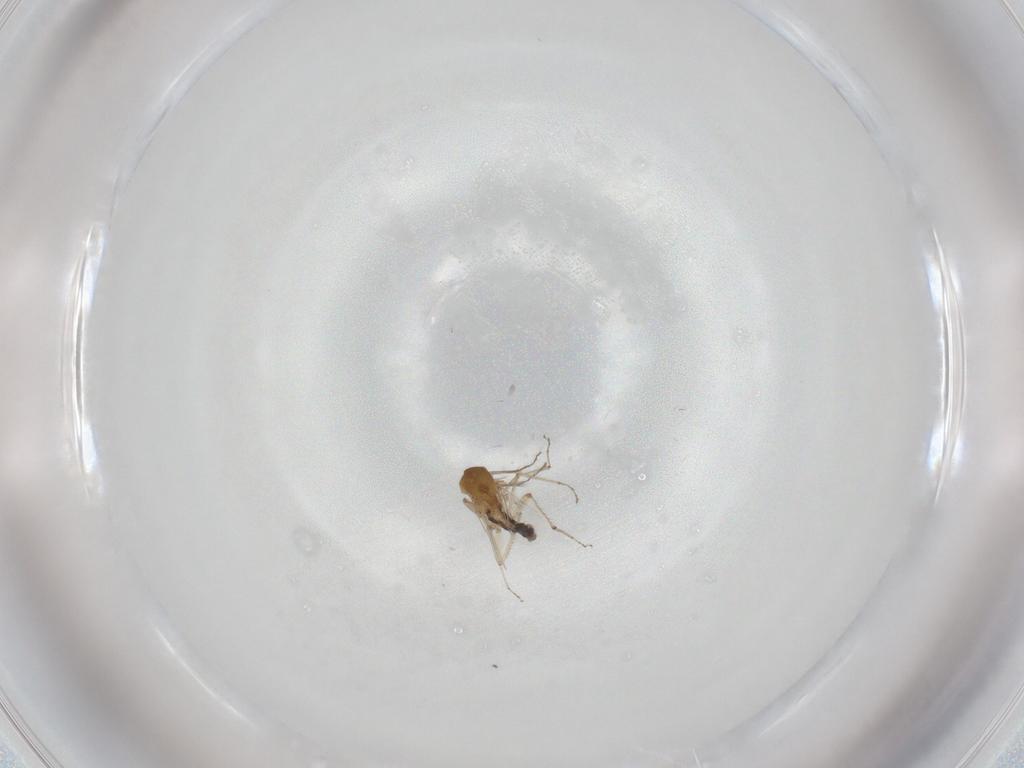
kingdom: Animalia
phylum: Arthropoda
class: Insecta
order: Diptera
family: Ceratopogonidae
